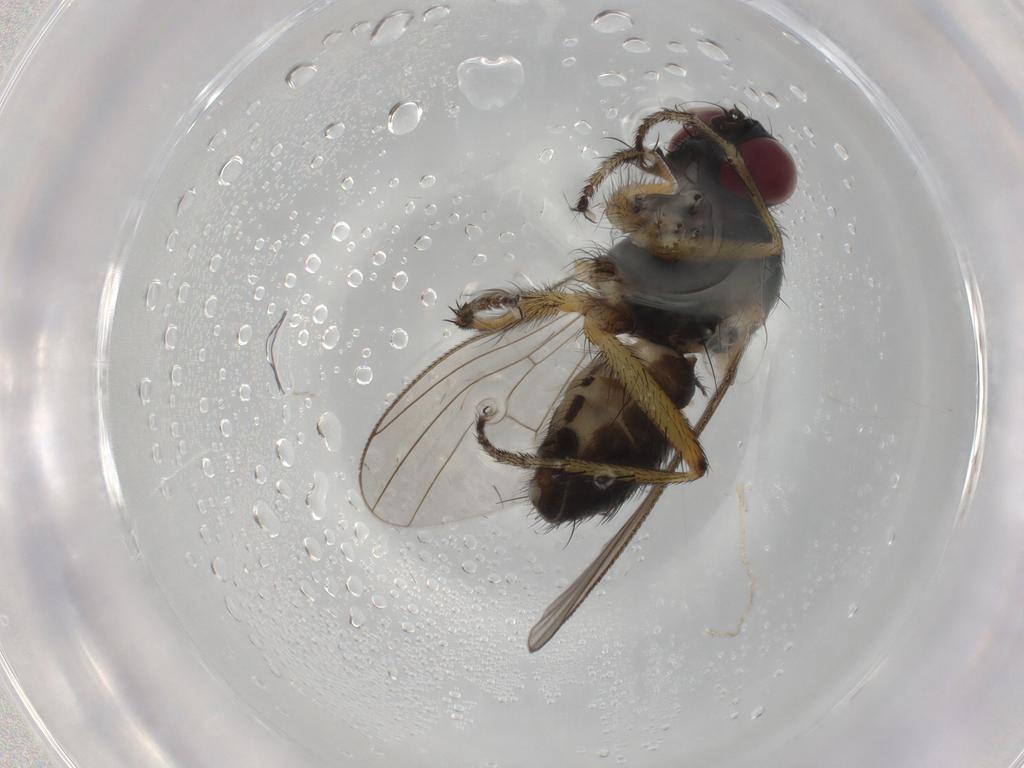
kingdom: Animalia
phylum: Arthropoda
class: Insecta
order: Diptera
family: Muscidae
